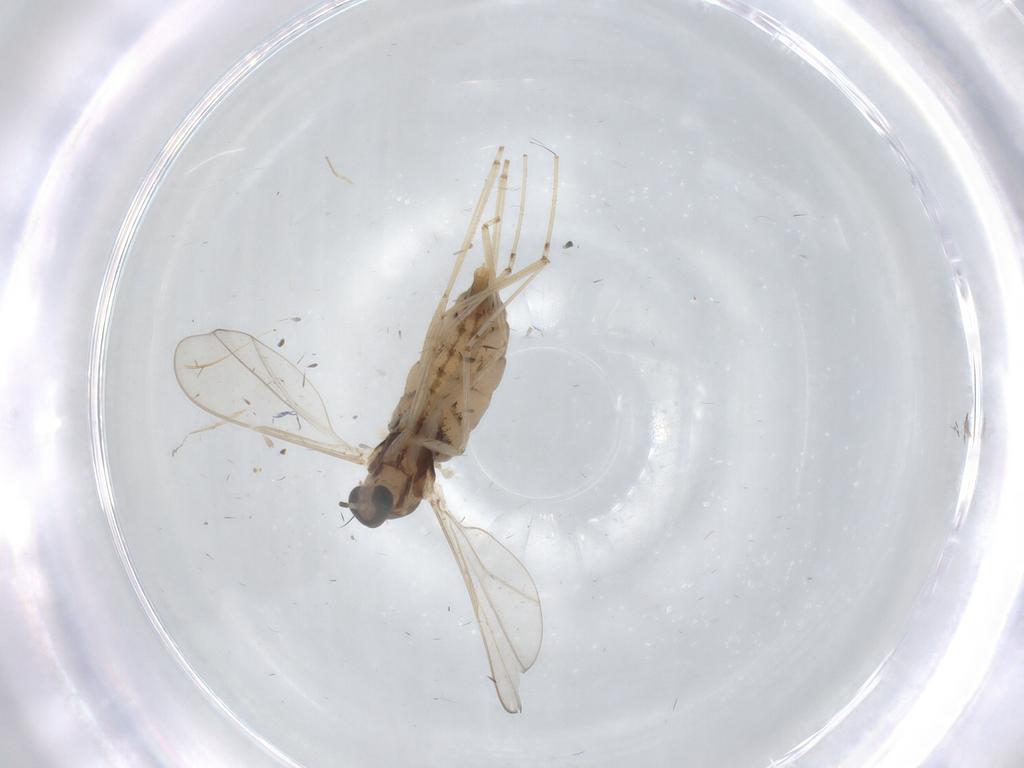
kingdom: Animalia
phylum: Arthropoda
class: Insecta
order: Diptera
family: Cecidomyiidae
